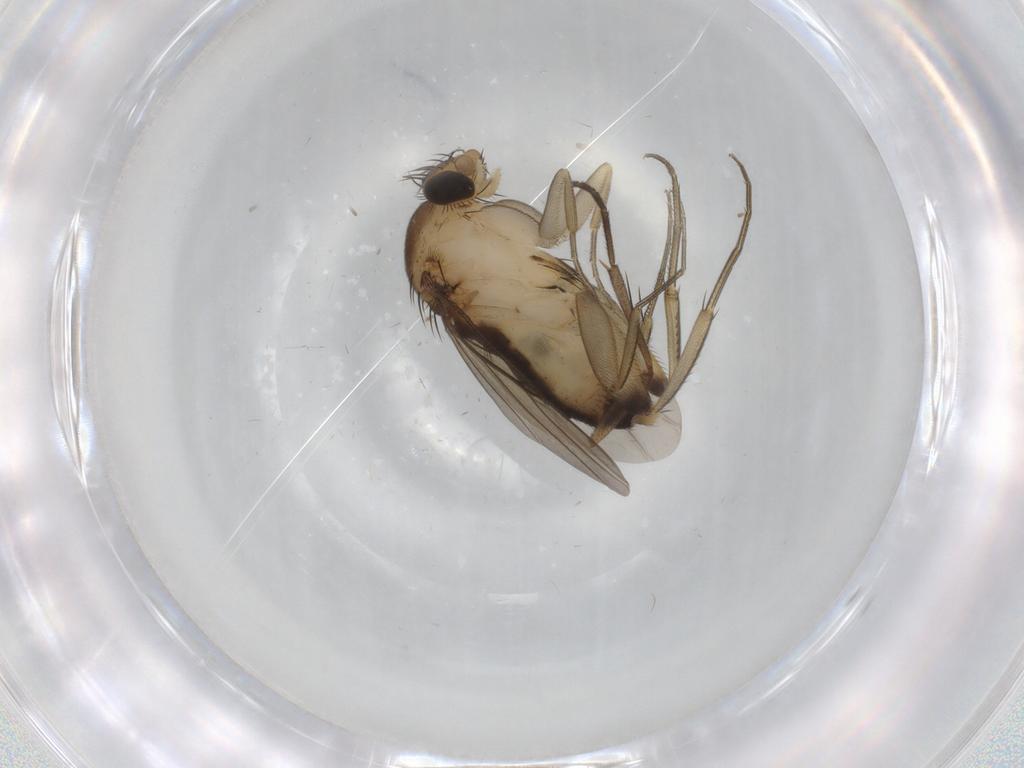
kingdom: Animalia
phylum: Arthropoda
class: Insecta
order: Diptera
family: Phoridae
